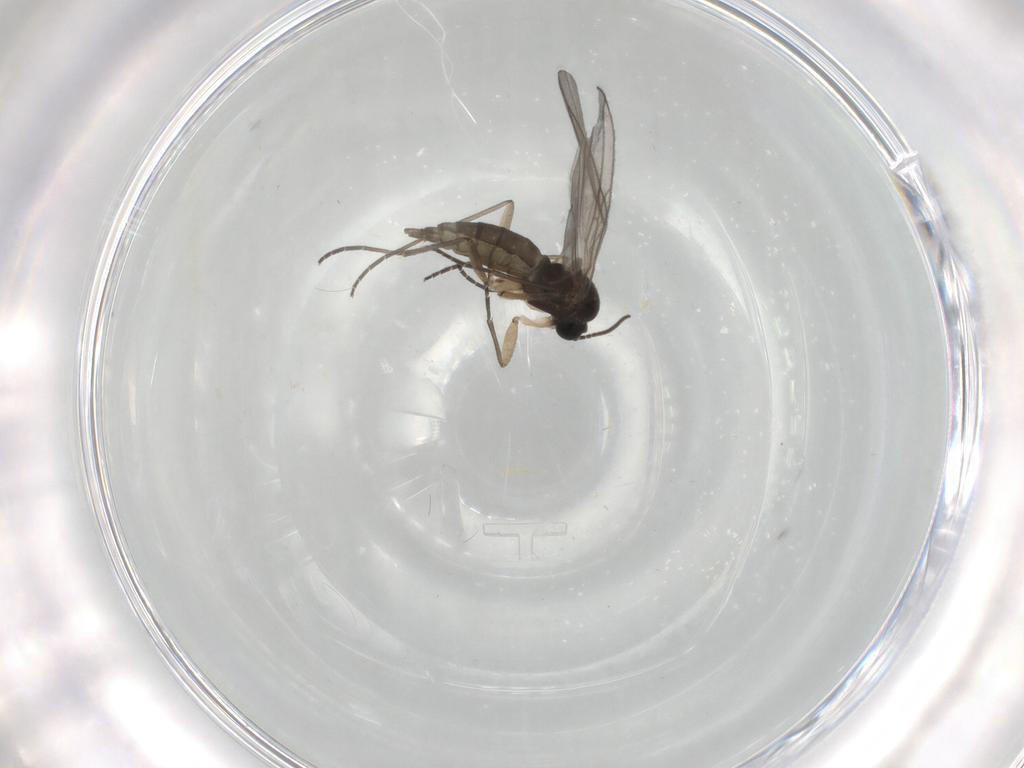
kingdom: Animalia
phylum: Arthropoda
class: Insecta
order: Diptera
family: Sciaridae
